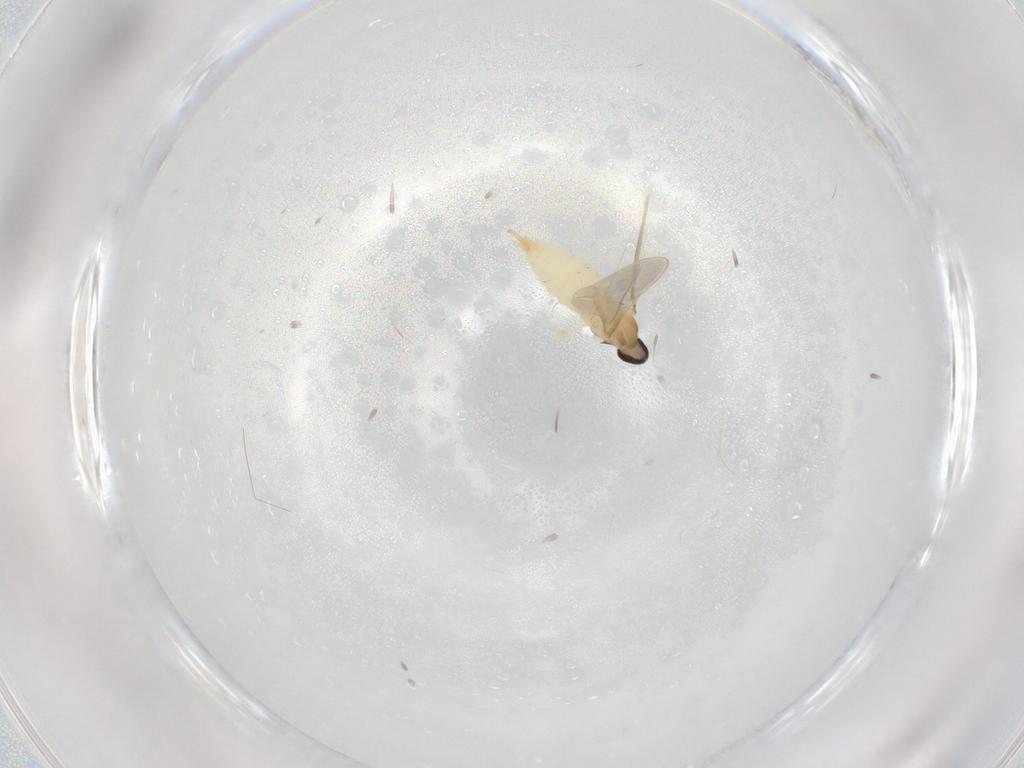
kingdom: Animalia
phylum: Arthropoda
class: Insecta
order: Diptera
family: Cecidomyiidae
